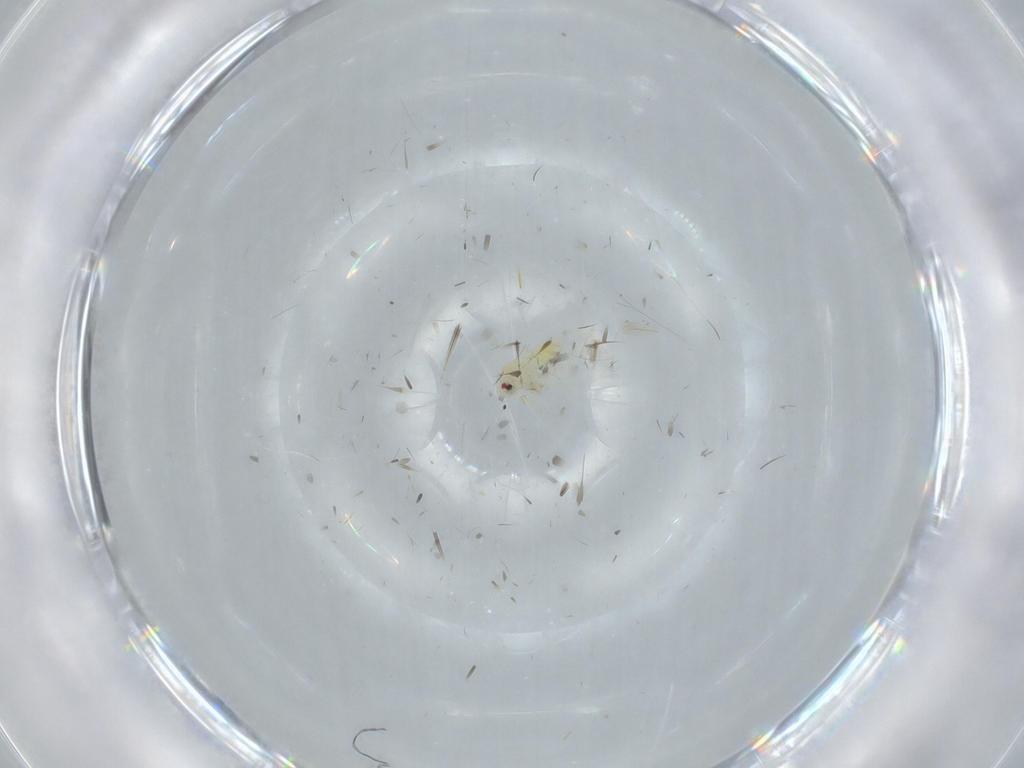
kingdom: Animalia
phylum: Arthropoda
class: Insecta
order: Hemiptera
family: Aleyrodidae
